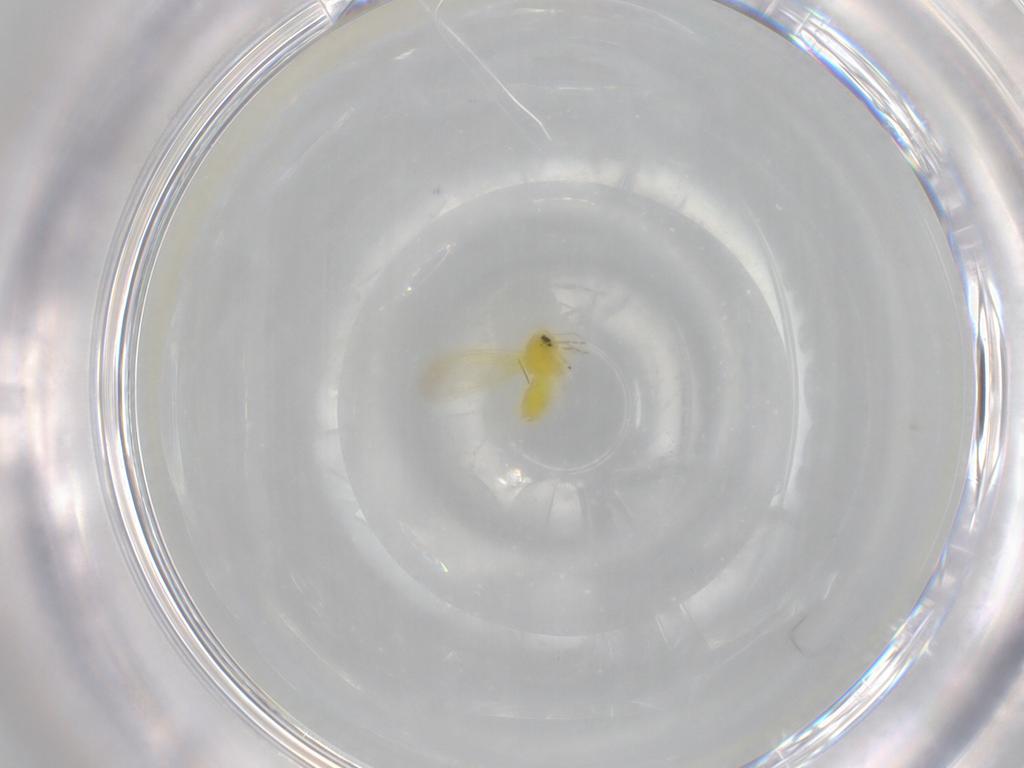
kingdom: Animalia
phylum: Arthropoda
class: Insecta
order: Hemiptera
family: Aleyrodidae
